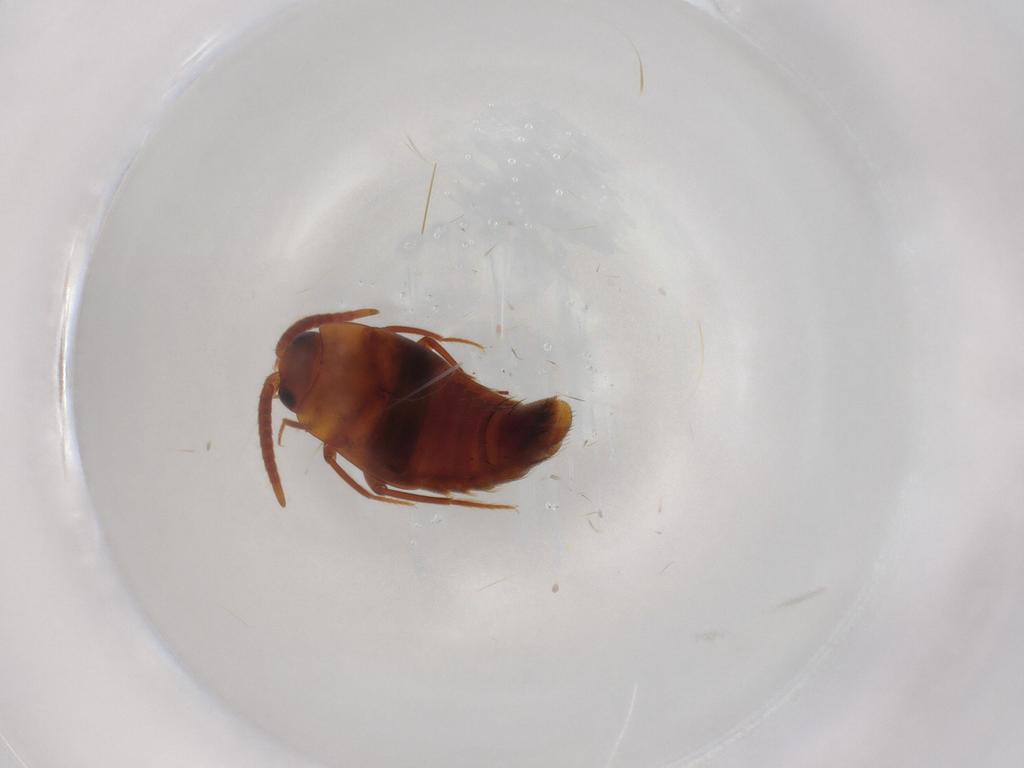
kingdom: Animalia
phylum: Arthropoda
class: Insecta
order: Coleoptera
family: Staphylinidae
